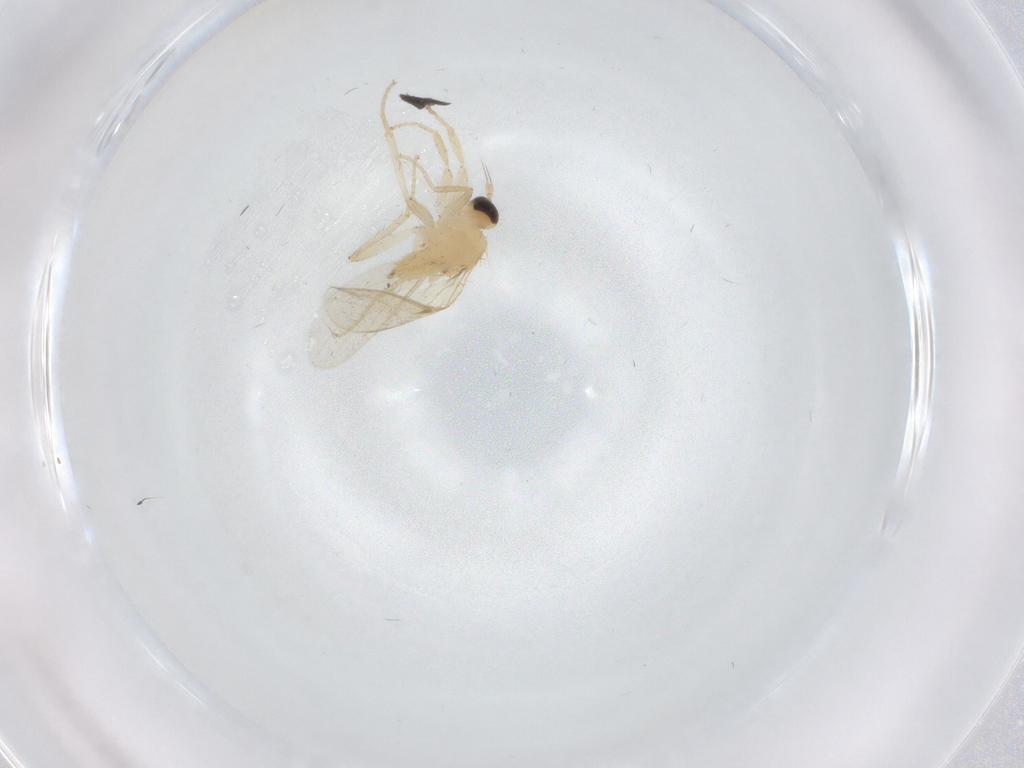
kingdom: Animalia
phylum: Arthropoda
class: Insecta
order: Diptera
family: Hybotidae
